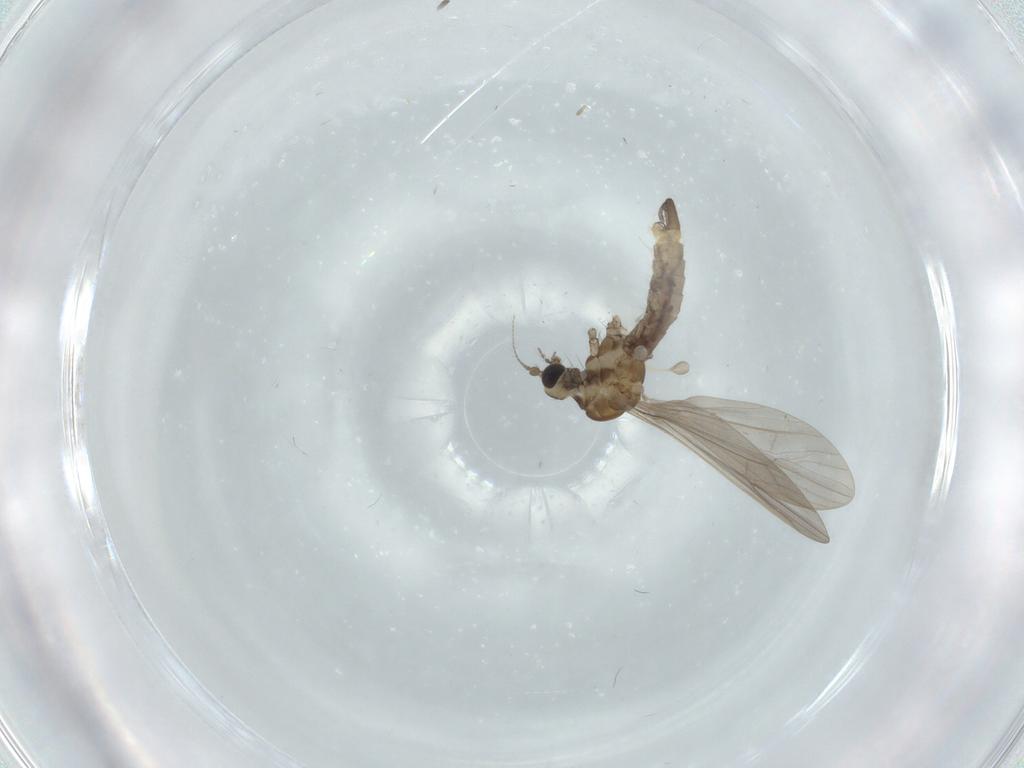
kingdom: Animalia
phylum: Arthropoda
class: Insecta
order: Diptera
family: Limoniidae
